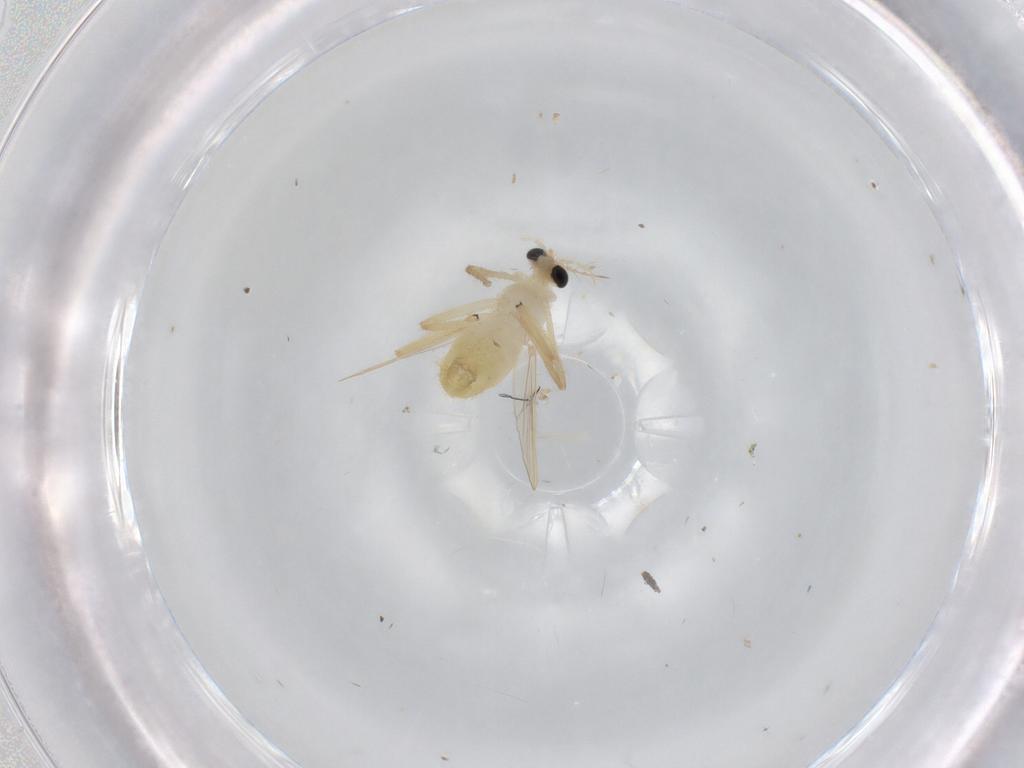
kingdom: Animalia
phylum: Arthropoda
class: Insecta
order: Diptera
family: Chironomidae
